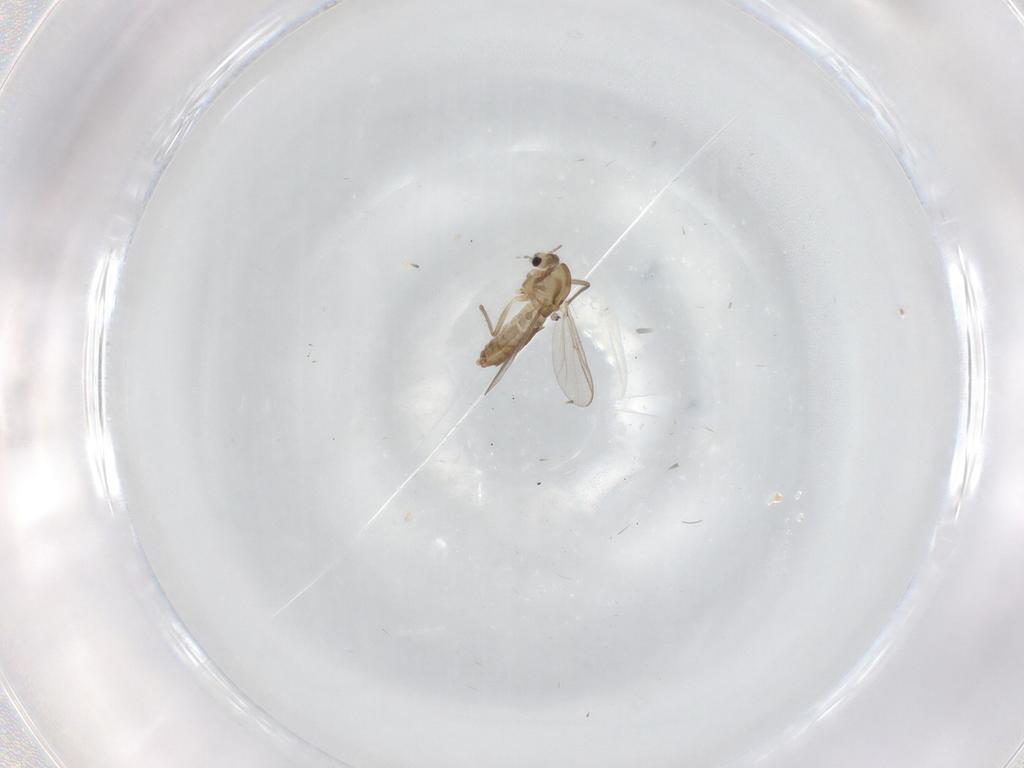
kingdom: Animalia
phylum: Arthropoda
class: Insecta
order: Diptera
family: Chironomidae
